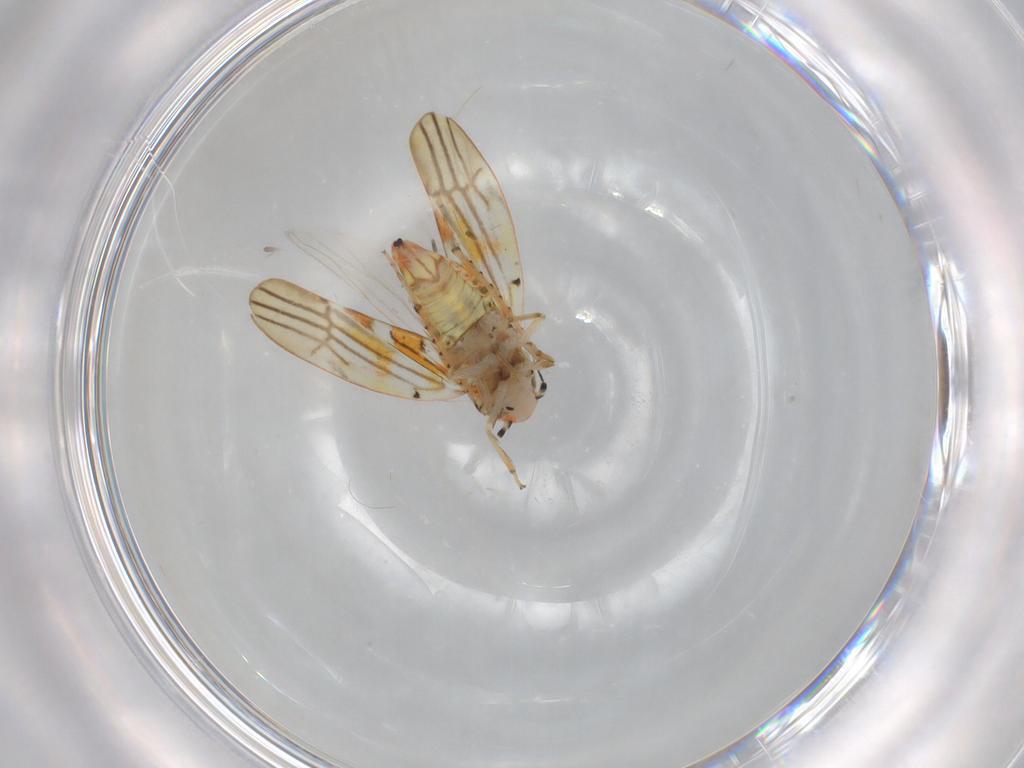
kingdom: Animalia
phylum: Arthropoda
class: Insecta
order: Hemiptera
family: Cicadellidae
